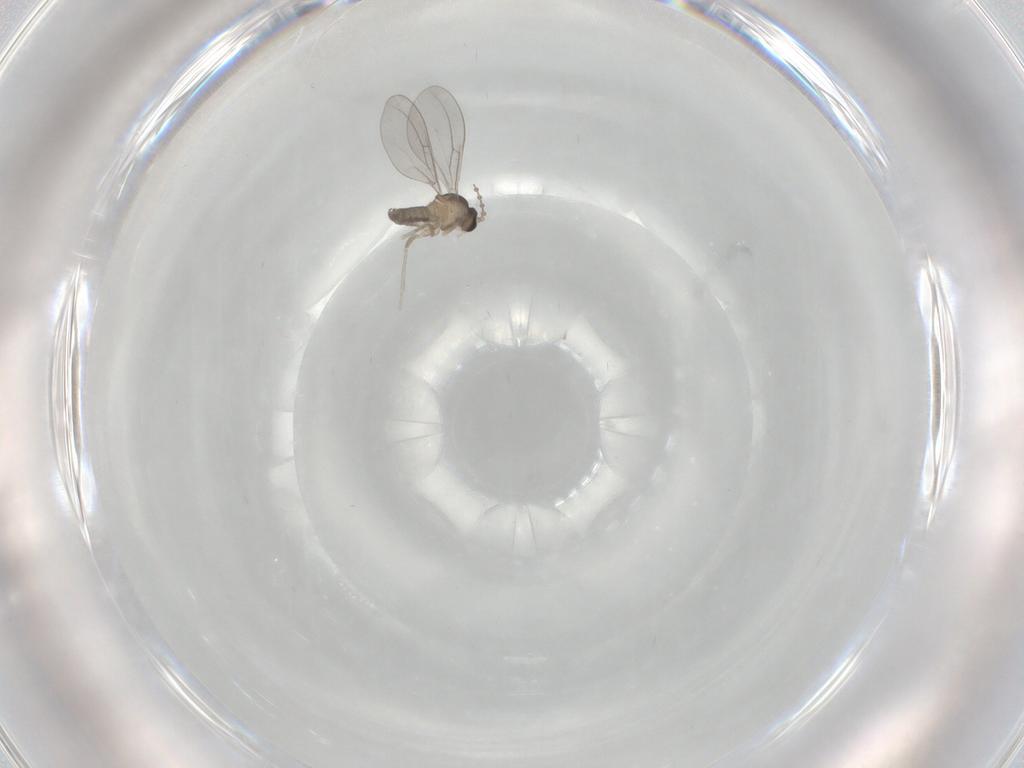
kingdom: Animalia
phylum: Arthropoda
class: Insecta
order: Diptera
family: Cecidomyiidae
